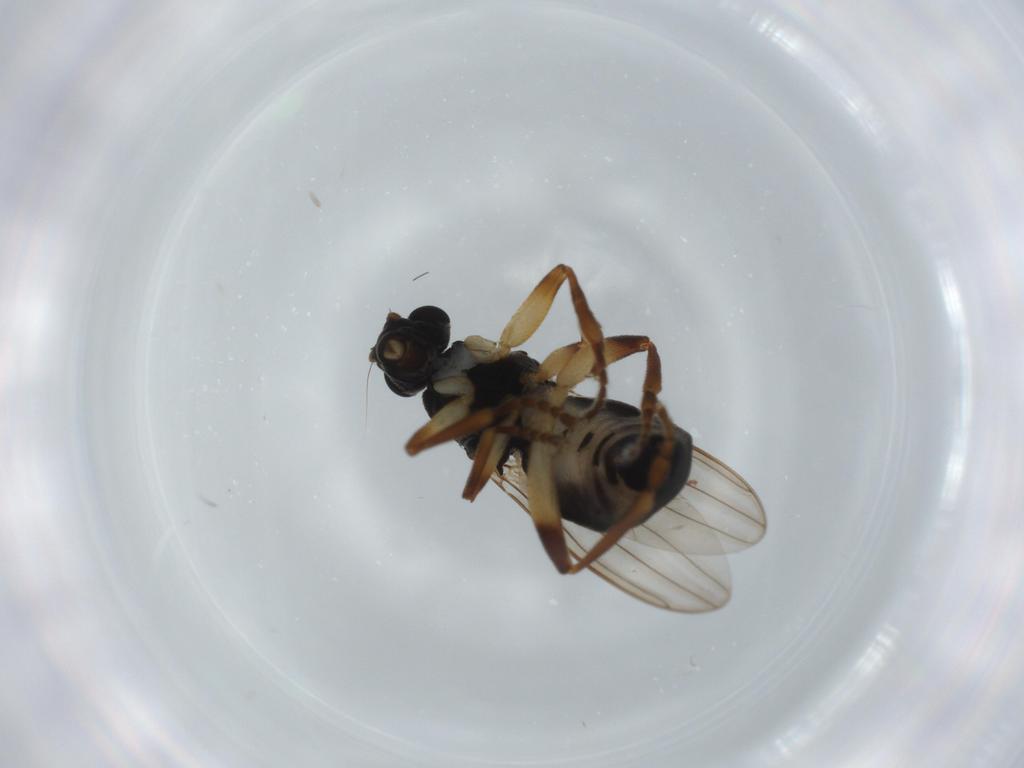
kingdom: Animalia
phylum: Arthropoda
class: Insecta
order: Diptera
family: Sphaeroceridae
